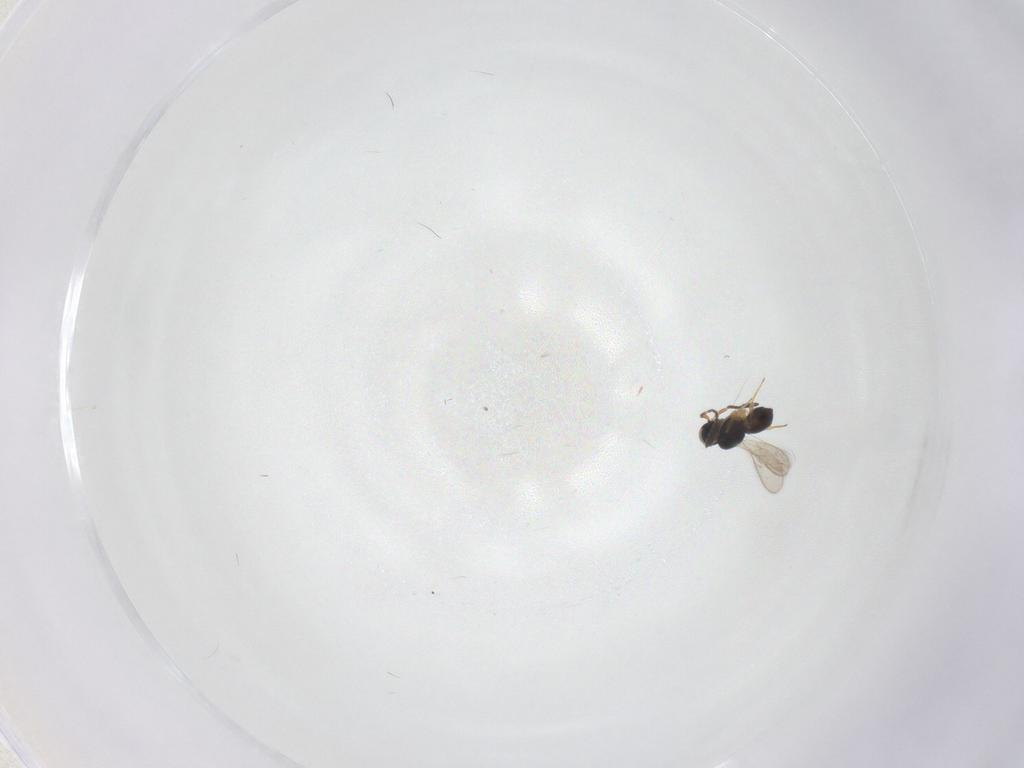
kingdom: Animalia
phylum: Arthropoda
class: Insecta
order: Hymenoptera
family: Scelionidae
